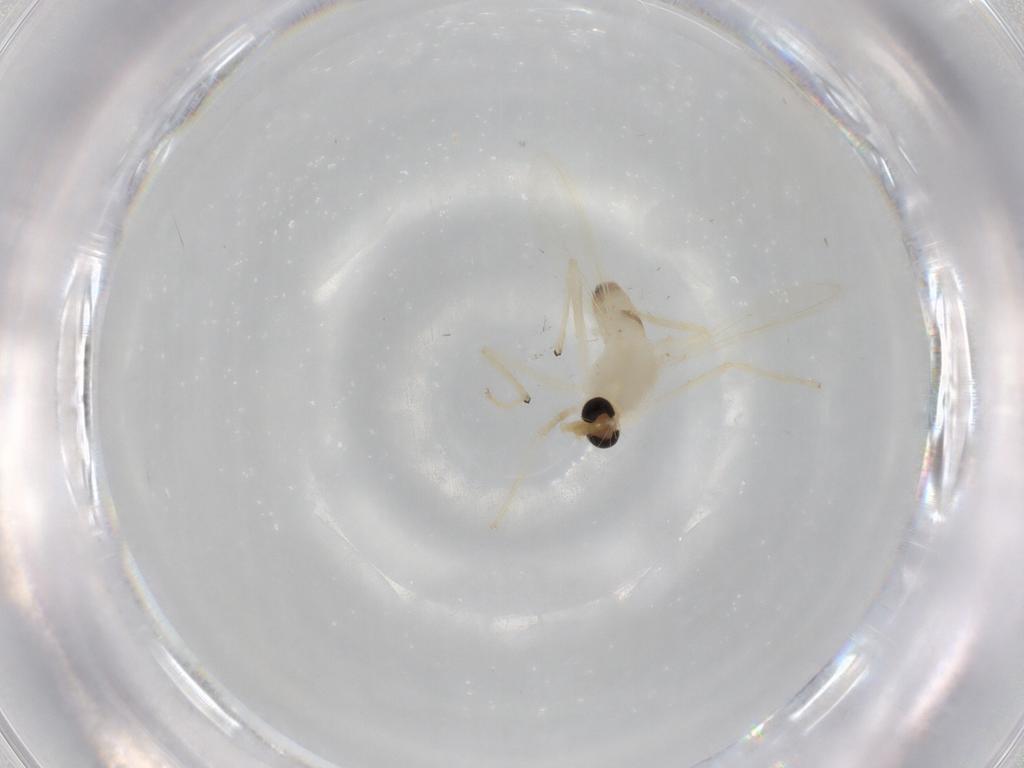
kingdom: Animalia
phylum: Arthropoda
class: Insecta
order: Diptera
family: Chironomidae
